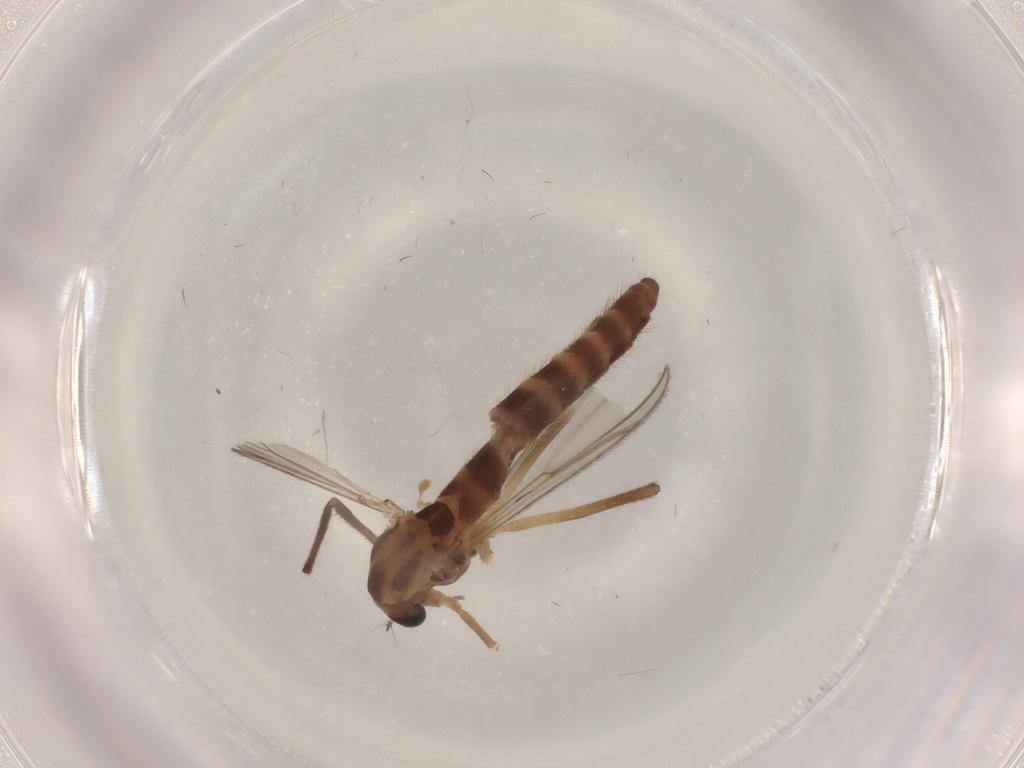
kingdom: Animalia
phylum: Arthropoda
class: Insecta
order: Diptera
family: Chironomidae
